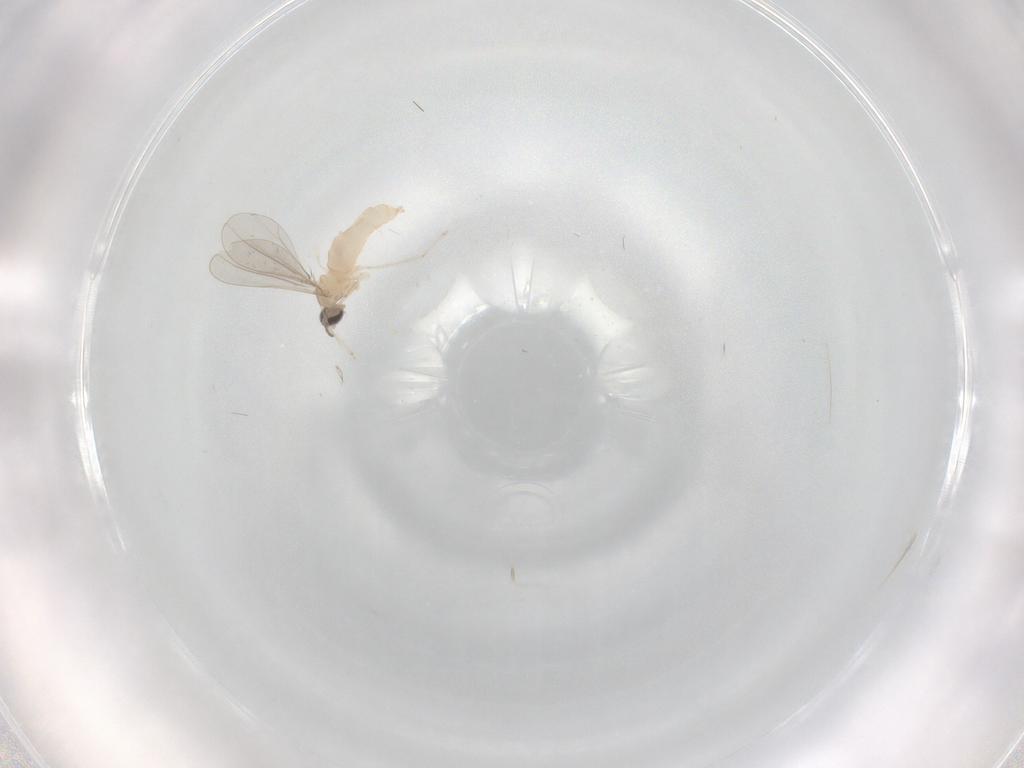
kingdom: Animalia
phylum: Arthropoda
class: Insecta
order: Diptera
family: Cecidomyiidae
